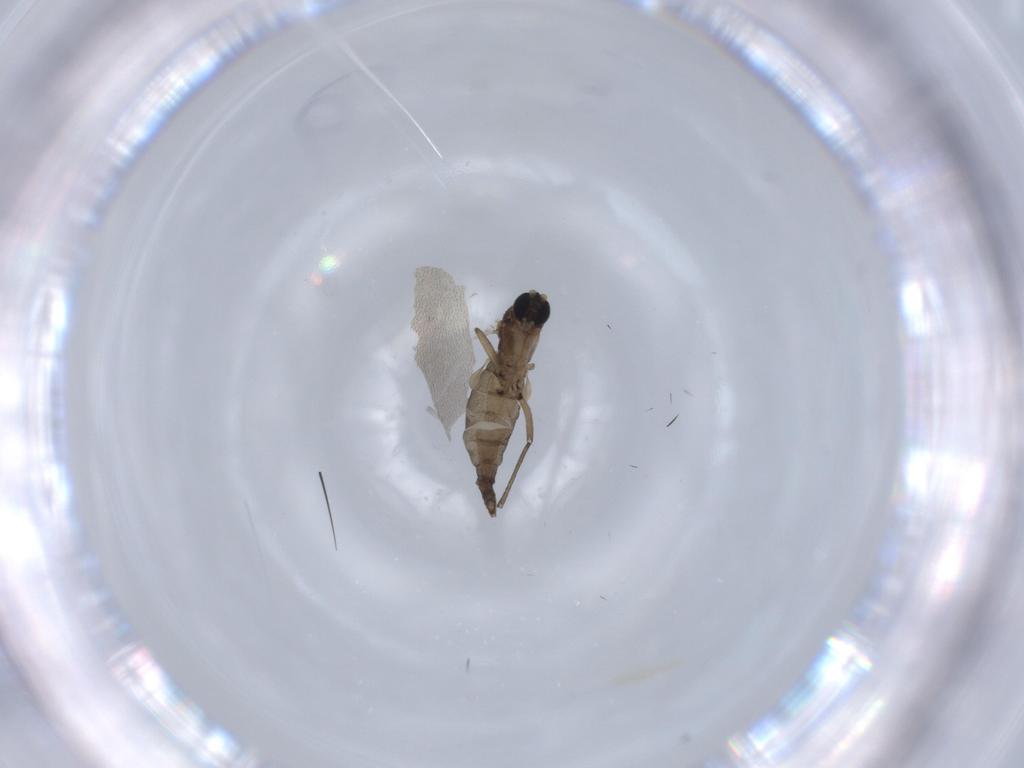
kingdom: Animalia
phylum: Arthropoda
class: Insecta
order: Diptera
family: Sciaridae
